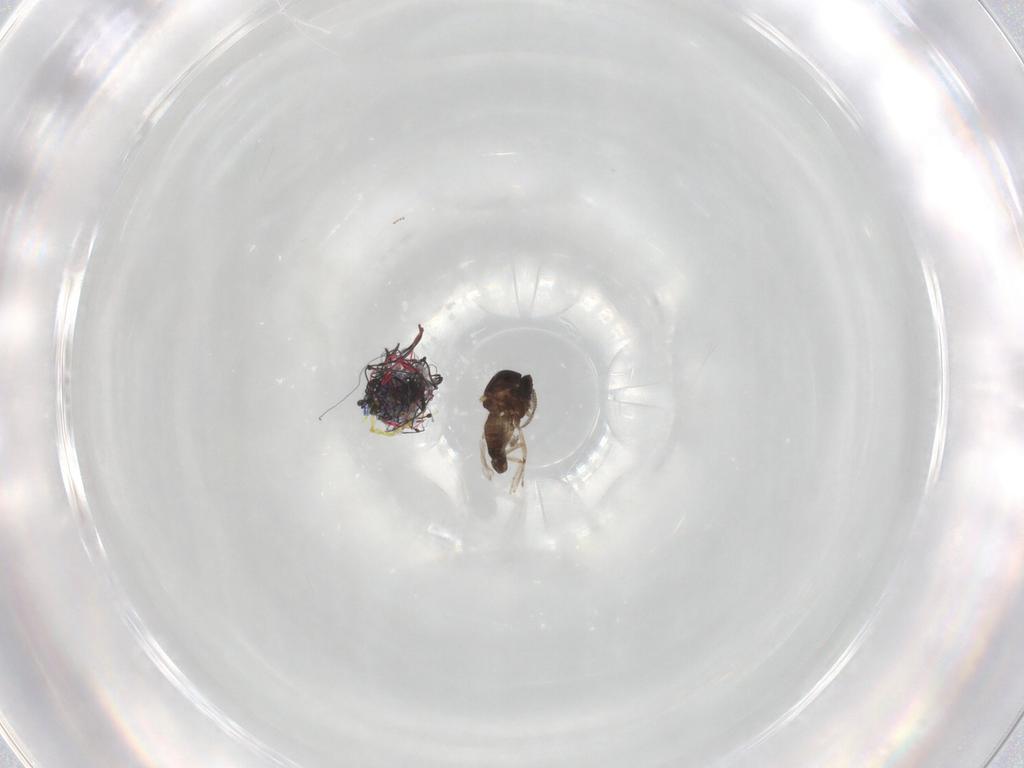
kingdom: Animalia
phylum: Arthropoda
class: Insecta
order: Diptera
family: Ceratopogonidae
